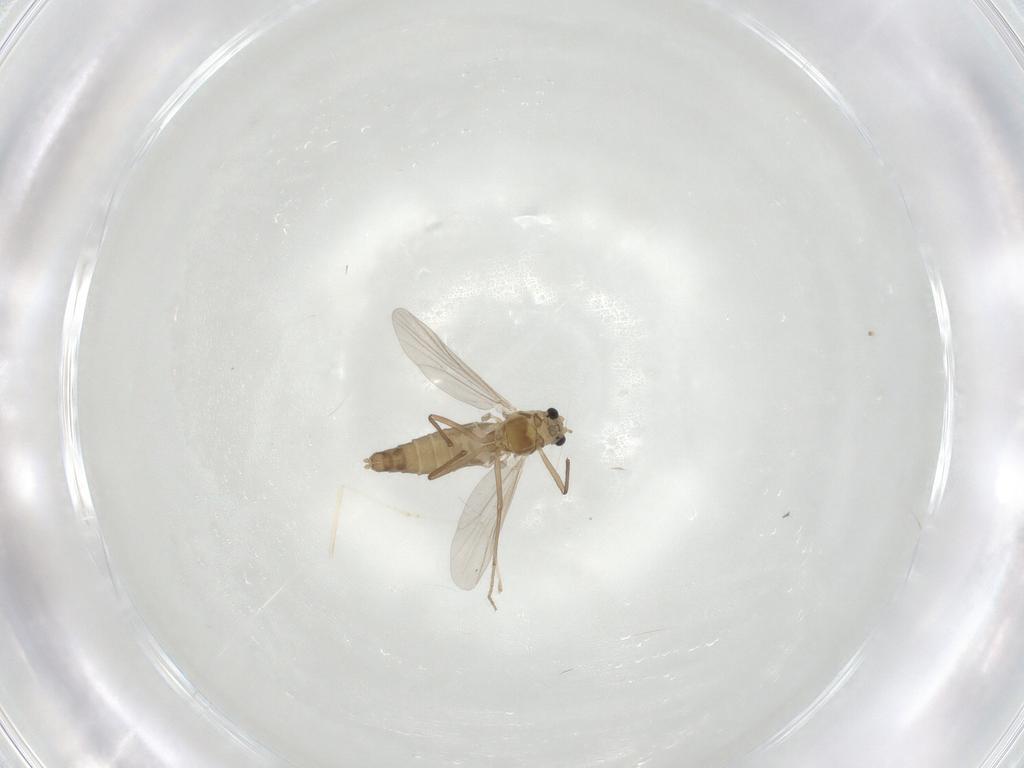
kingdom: Animalia
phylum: Arthropoda
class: Insecta
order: Diptera
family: Chironomidae
